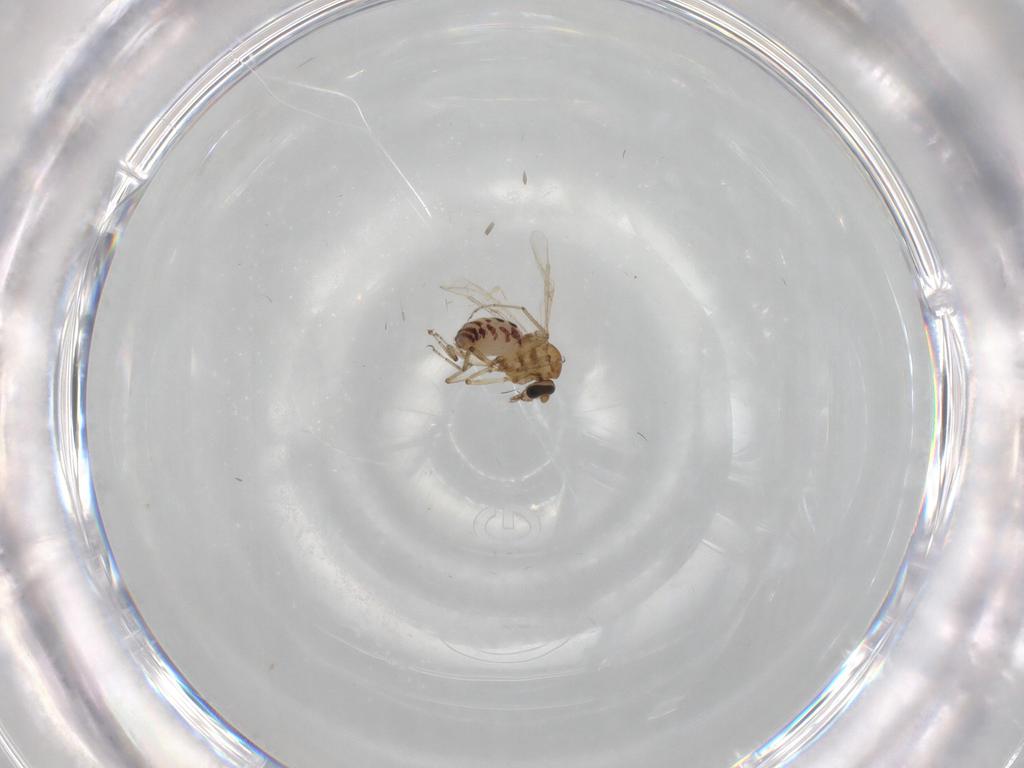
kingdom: Animalia
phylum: Arthropoda
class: Insecta
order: Diptera
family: Ceratopogonidae
